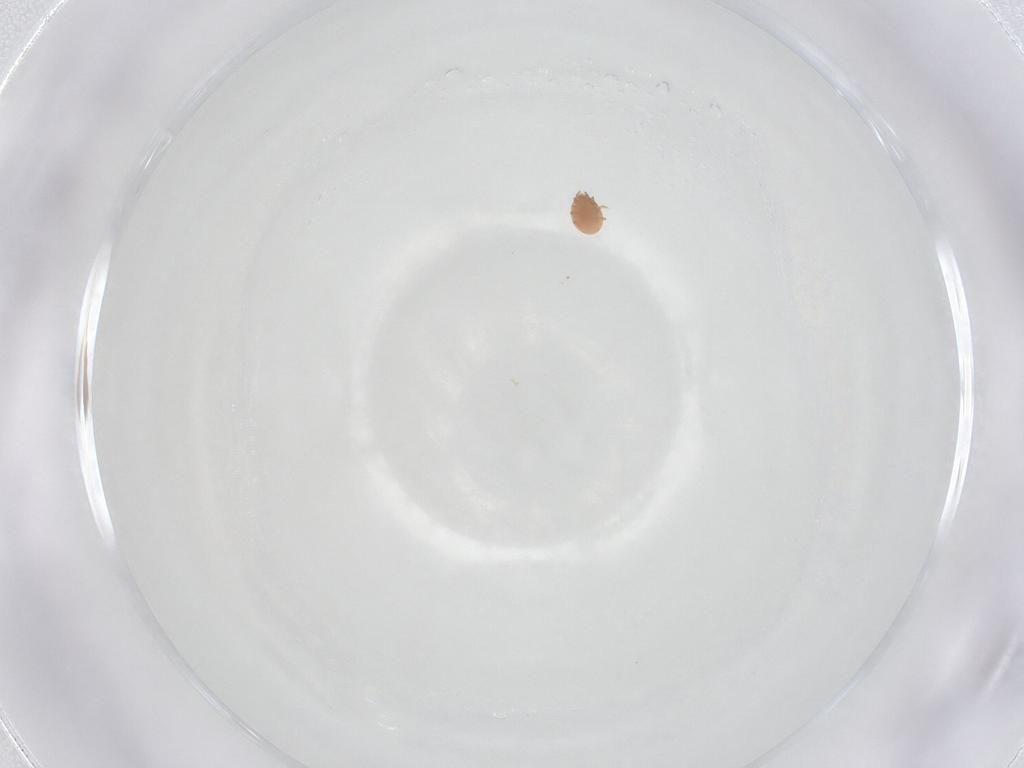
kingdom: Animalia
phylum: Arthropoda
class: Arachnida
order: Mesostigmata
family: Trematuridae
